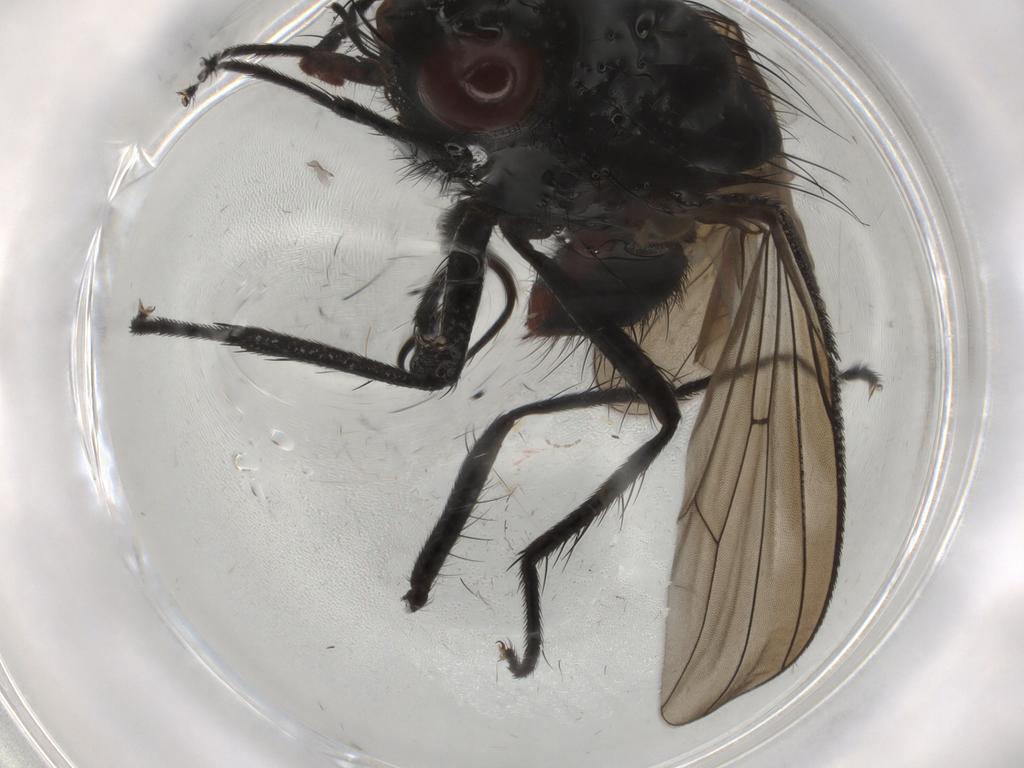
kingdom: Animalia
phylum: Arthropoda
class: Insecta
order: Diptera
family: Anthomyiidae
